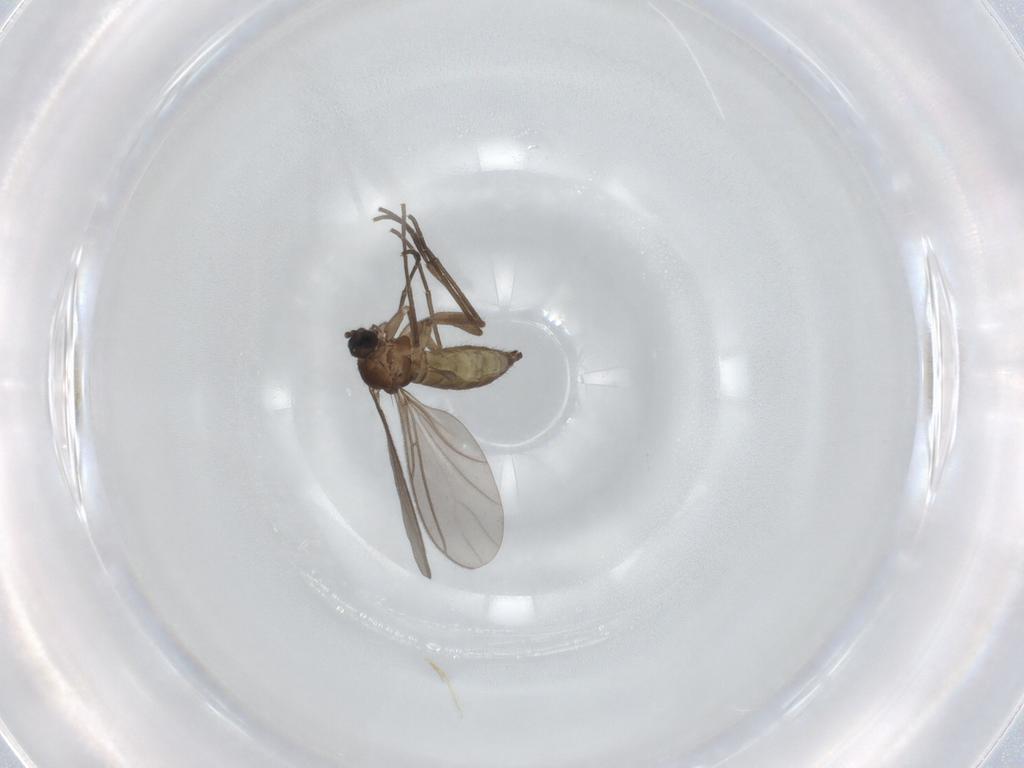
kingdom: Animalia
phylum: Arthropoda
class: Insecta
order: Diptera
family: Sciaridae
